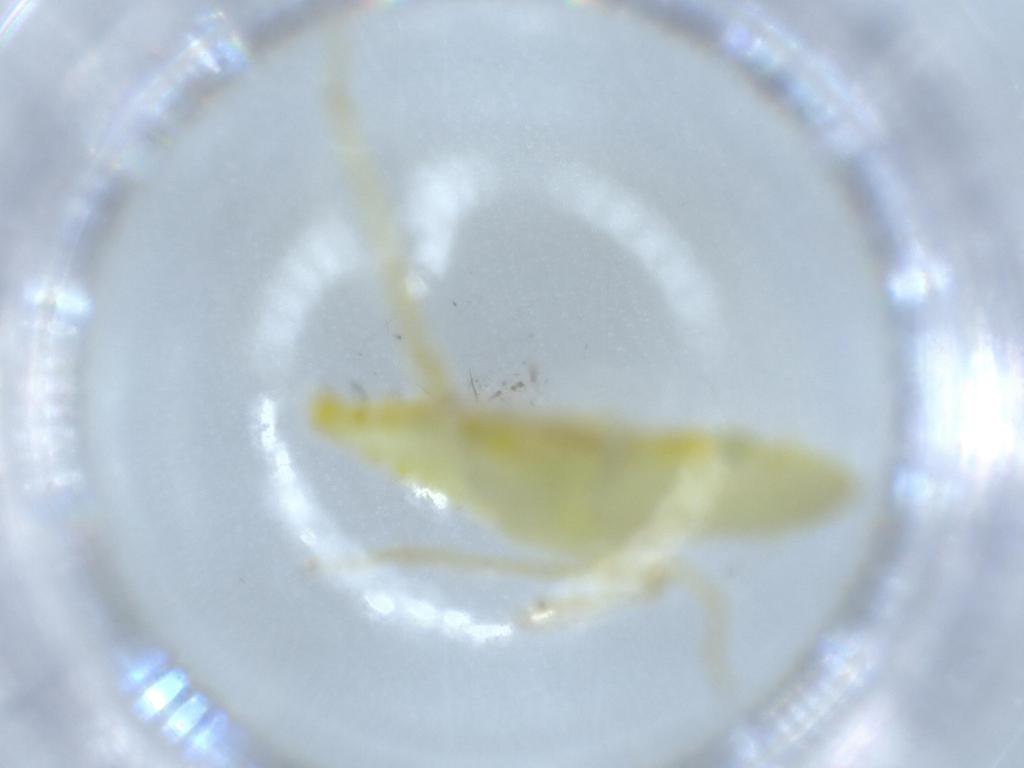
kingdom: Animalia
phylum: Arthropoda
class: Insecta
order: Hemiptera
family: Cicadellidae
